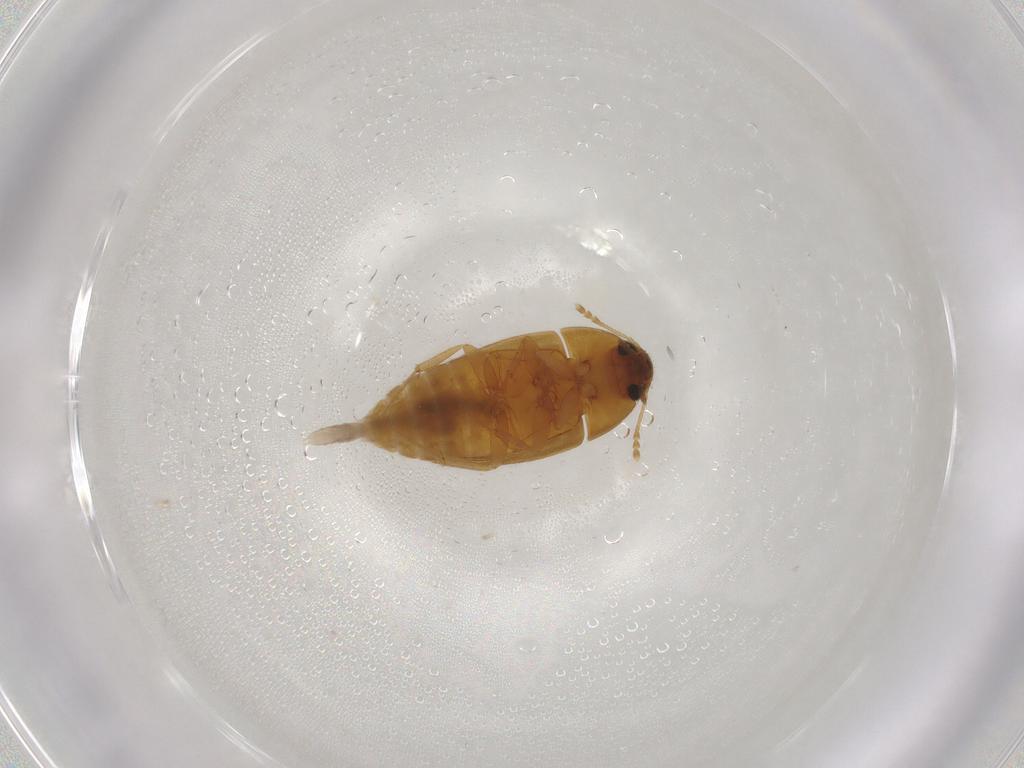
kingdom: Animalia
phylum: Arthropoda
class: Insecta
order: Coleoptera
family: Mycetophagidae
